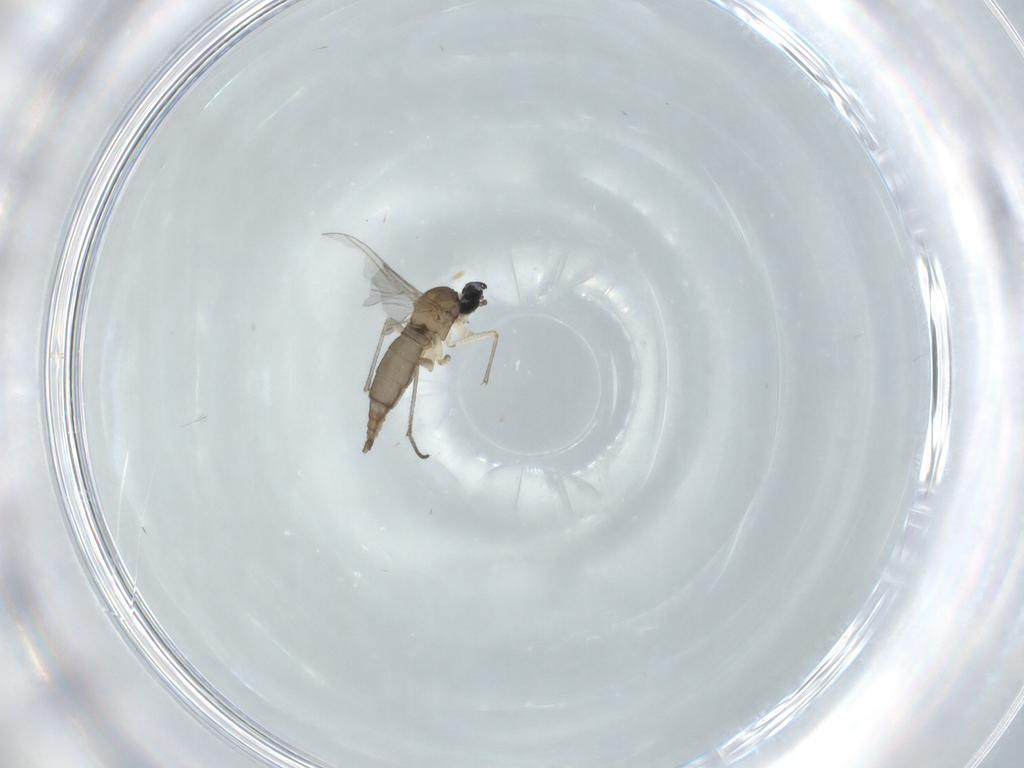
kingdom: Animalia
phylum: Arthropoda
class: Insecta
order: Diptera
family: Sciaridae
